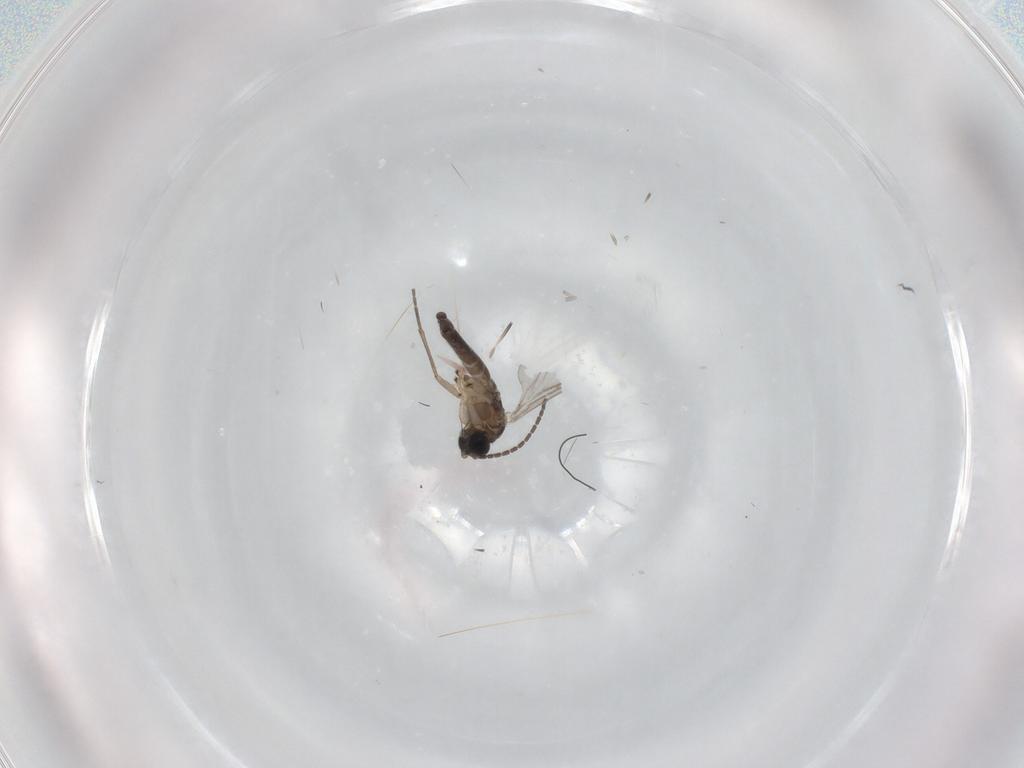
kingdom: Animalia
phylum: Arthropoda
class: Insecta
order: Diptera
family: Sciaridae
